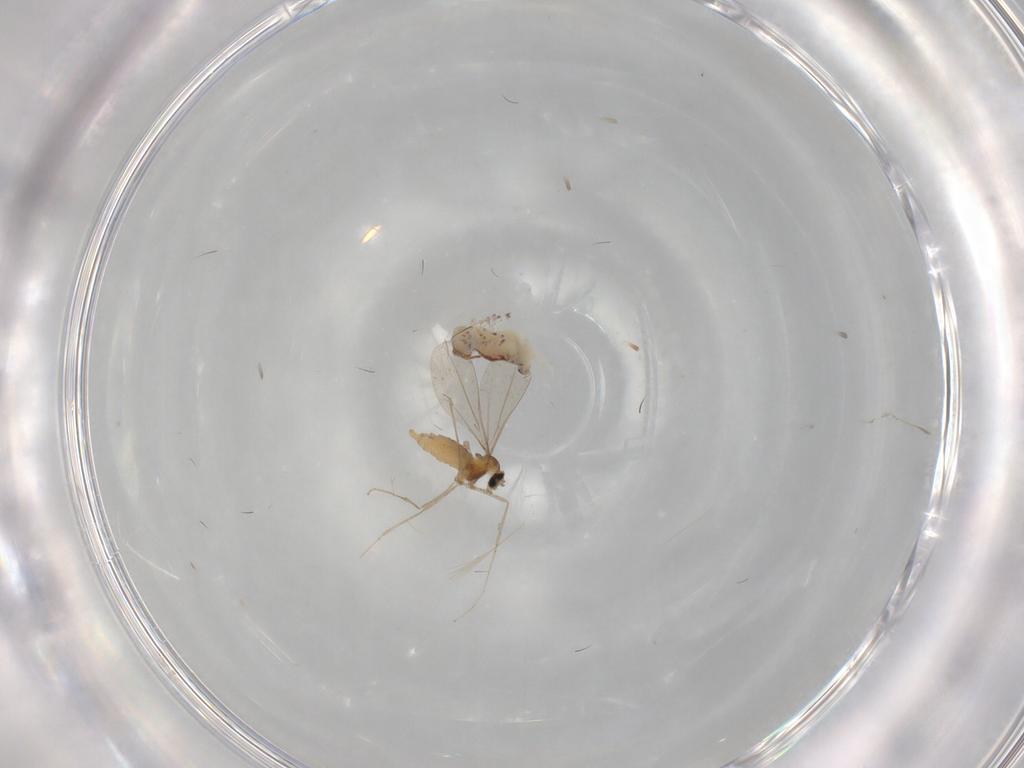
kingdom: Animalia
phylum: Arthropoda
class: Collembola
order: Symphypleona
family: Bourletiellidae
